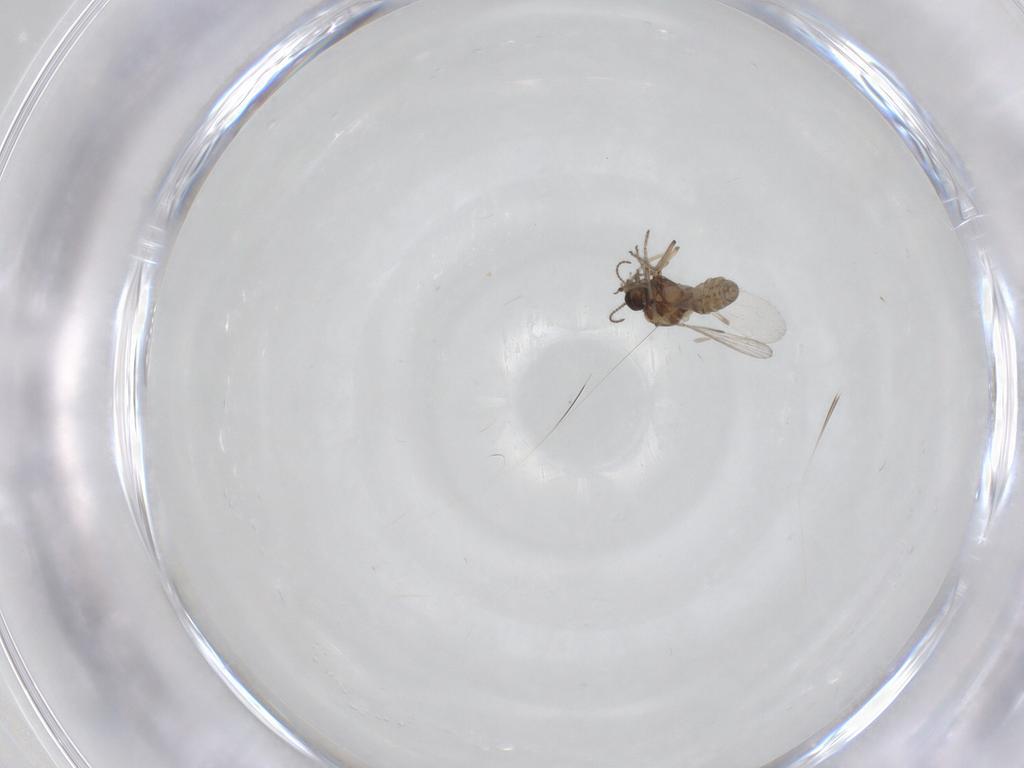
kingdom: Animalia
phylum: Arthropoda
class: Insecta
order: Diptera
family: Ceratopogonidae
